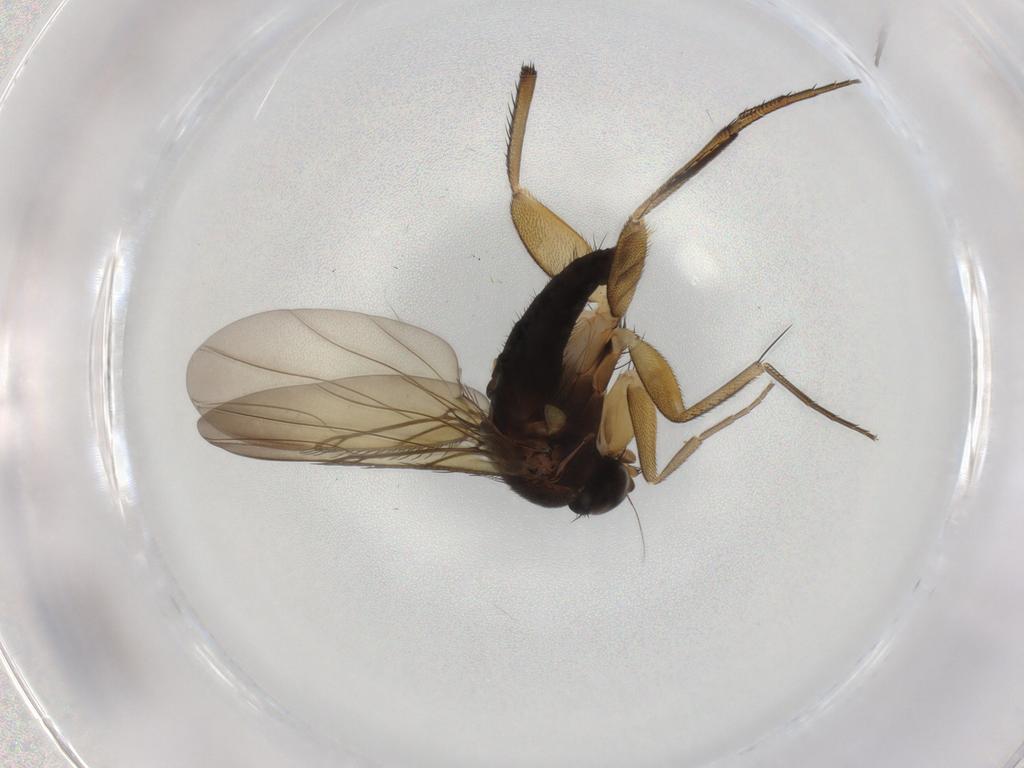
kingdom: Animalia
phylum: Arthropoda
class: Insecta
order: Diptera
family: Phoridae
